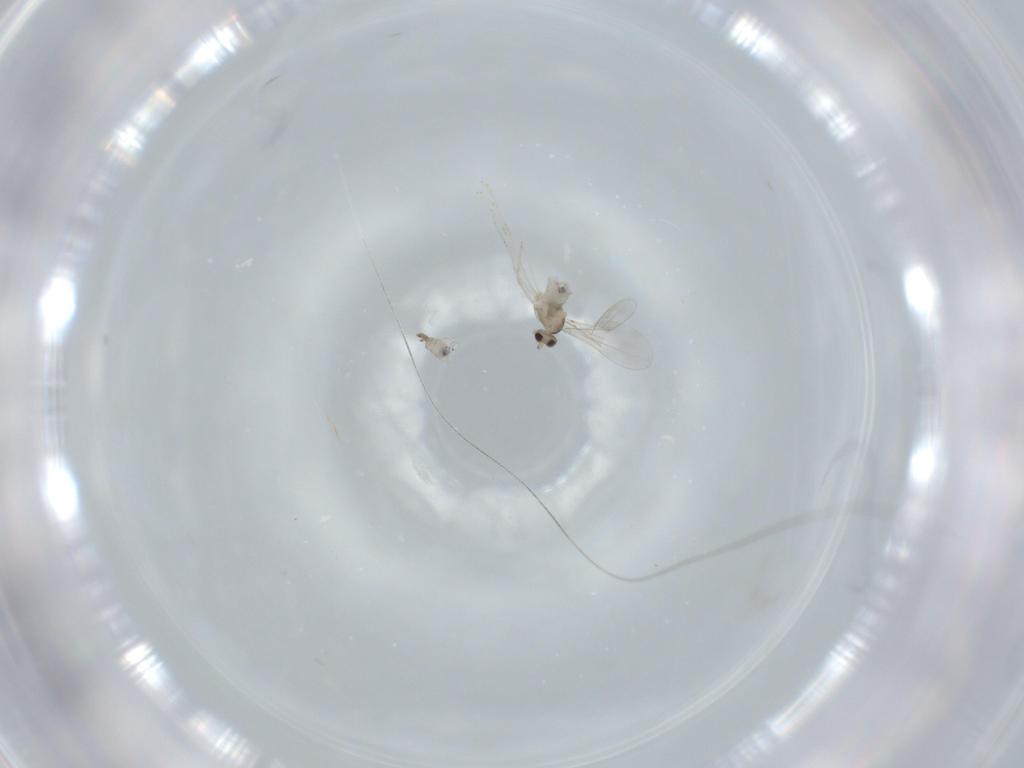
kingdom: Animalia
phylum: Arthropoda
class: Insecta
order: Diptera
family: Cecidomyiidae
